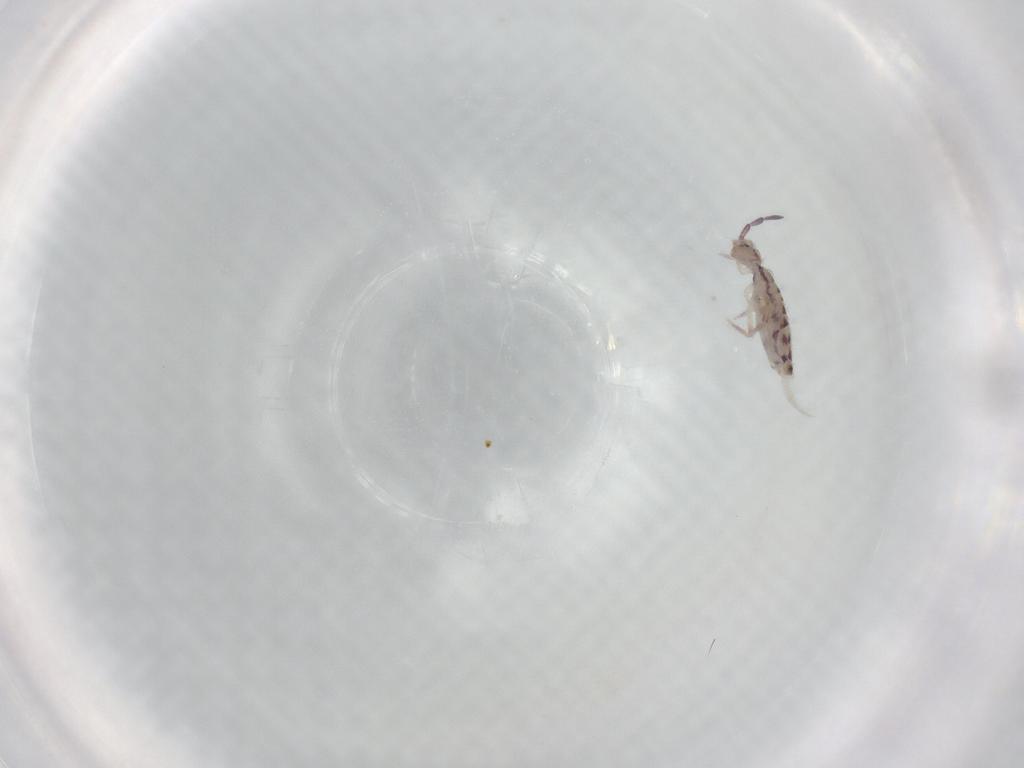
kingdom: Animalia
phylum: Arthropoda
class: Collembola
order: Entomobryomorpha
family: Entomobryidae
